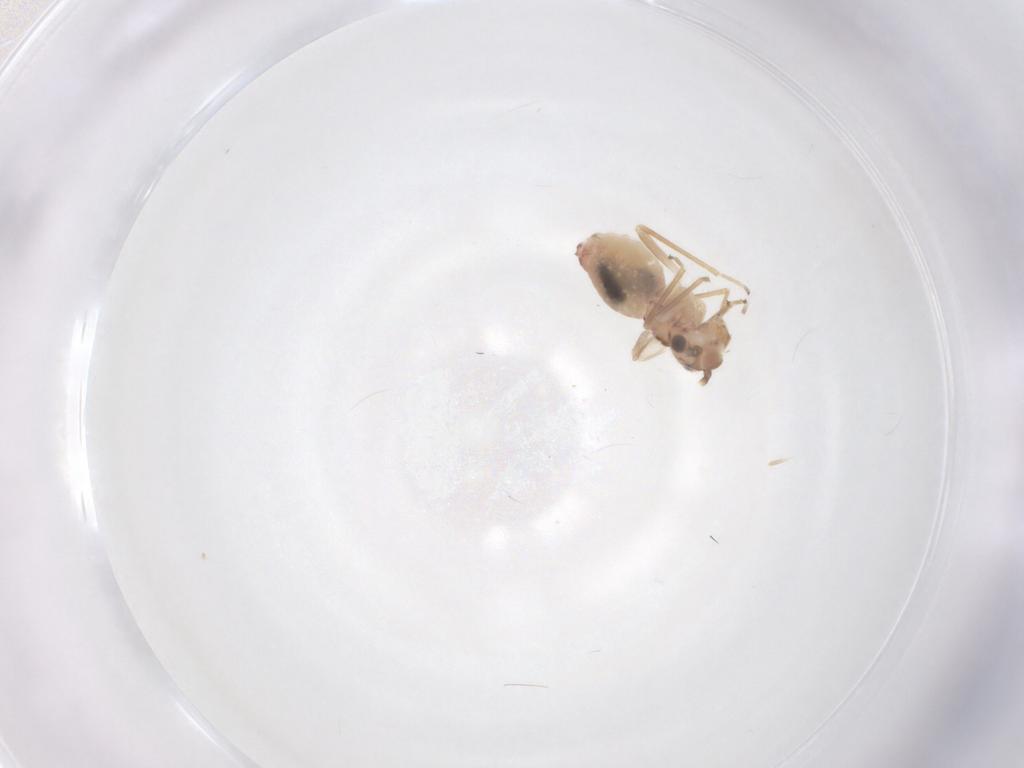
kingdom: Animalia
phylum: Arthropoda
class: Insecta
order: Psocodea
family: Caeciliusidae
